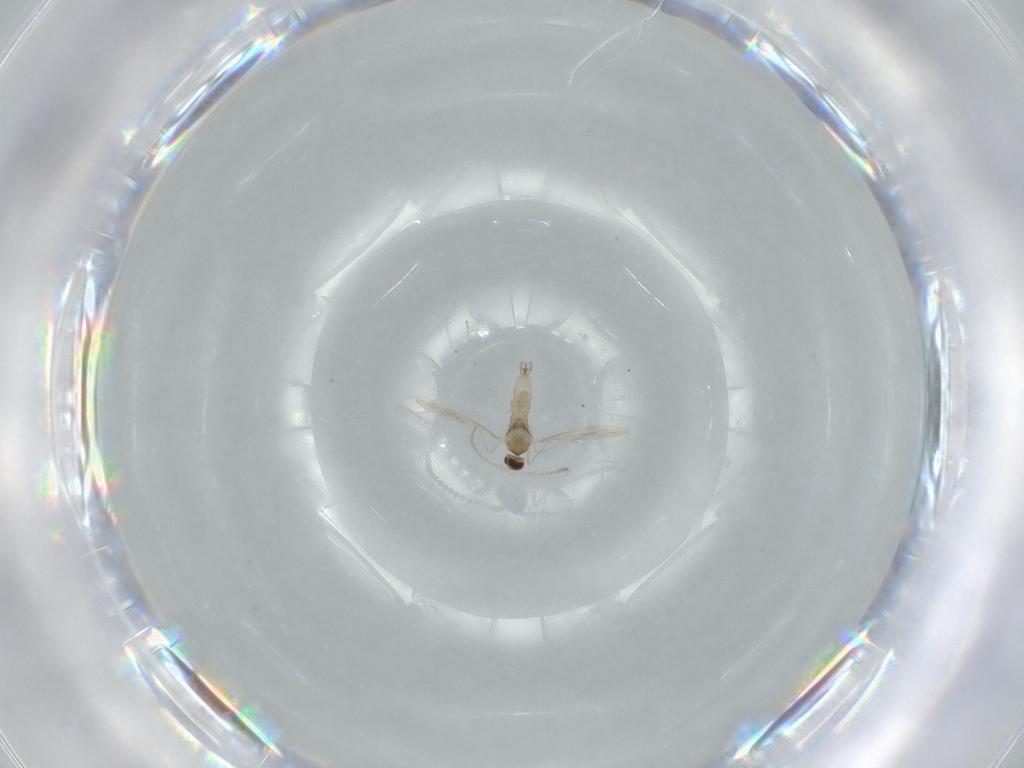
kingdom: Animalia
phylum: Arthropoda
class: Insecta
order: Diptera
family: Cecidomyiidae
